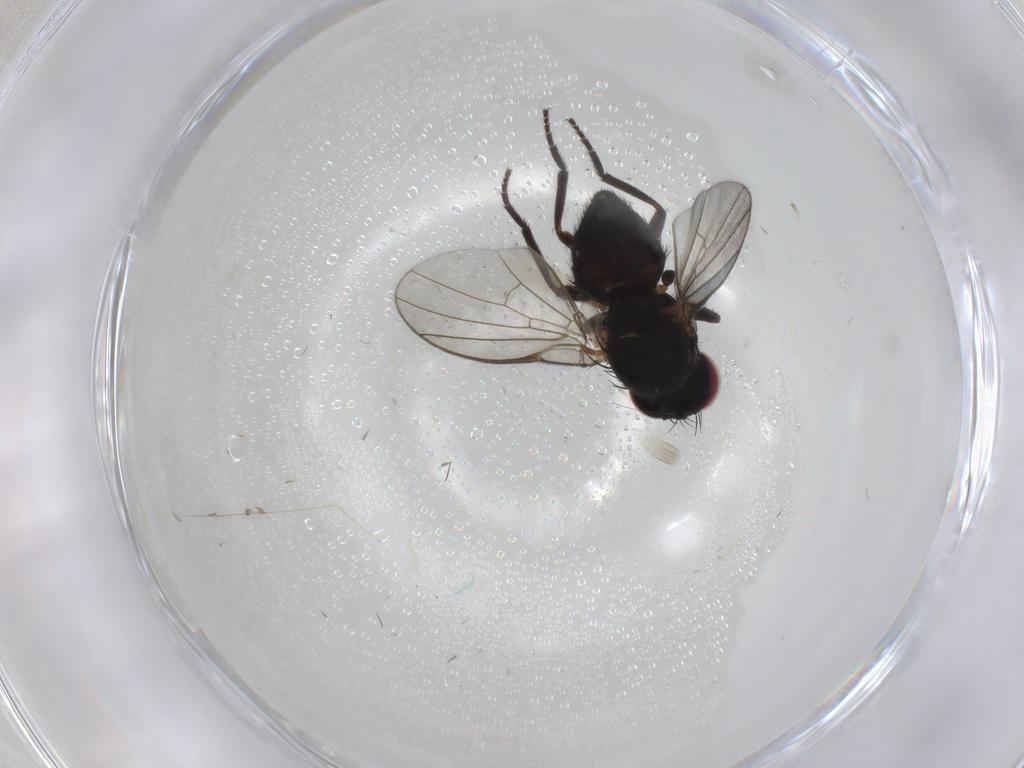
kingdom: Animalia
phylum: Arthropoda
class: Insecta
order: Diptera
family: Agromyzidae
